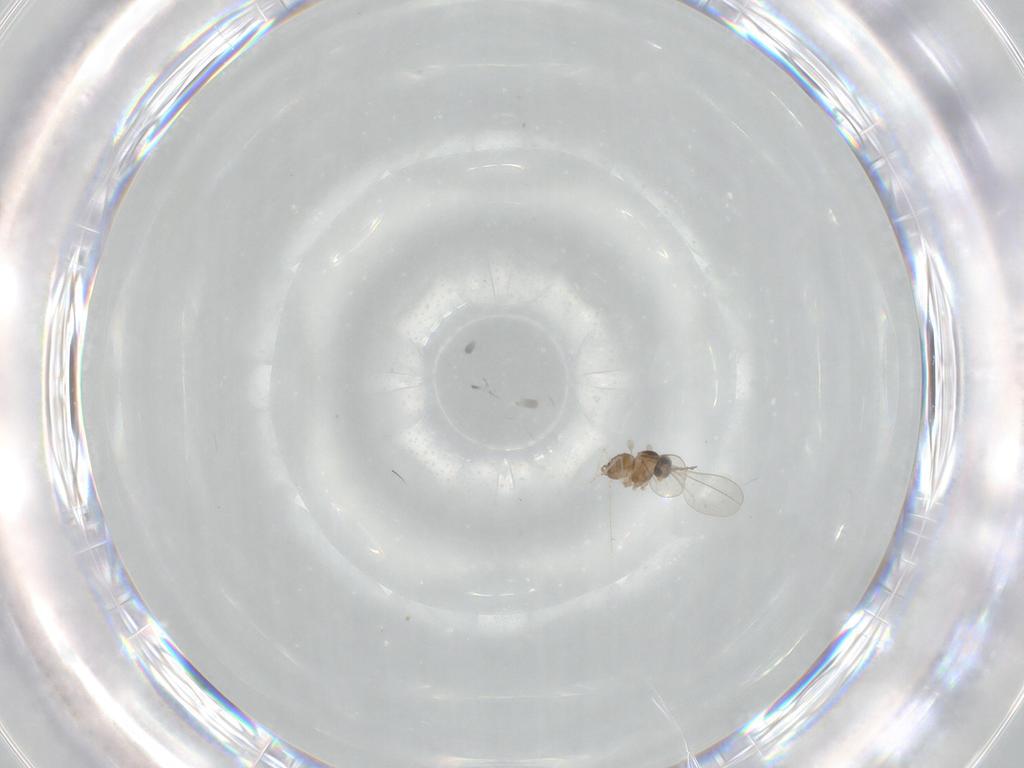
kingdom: Animalia
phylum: Arthropoda
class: Insecta
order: Diptera
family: Cecidomyiidae
